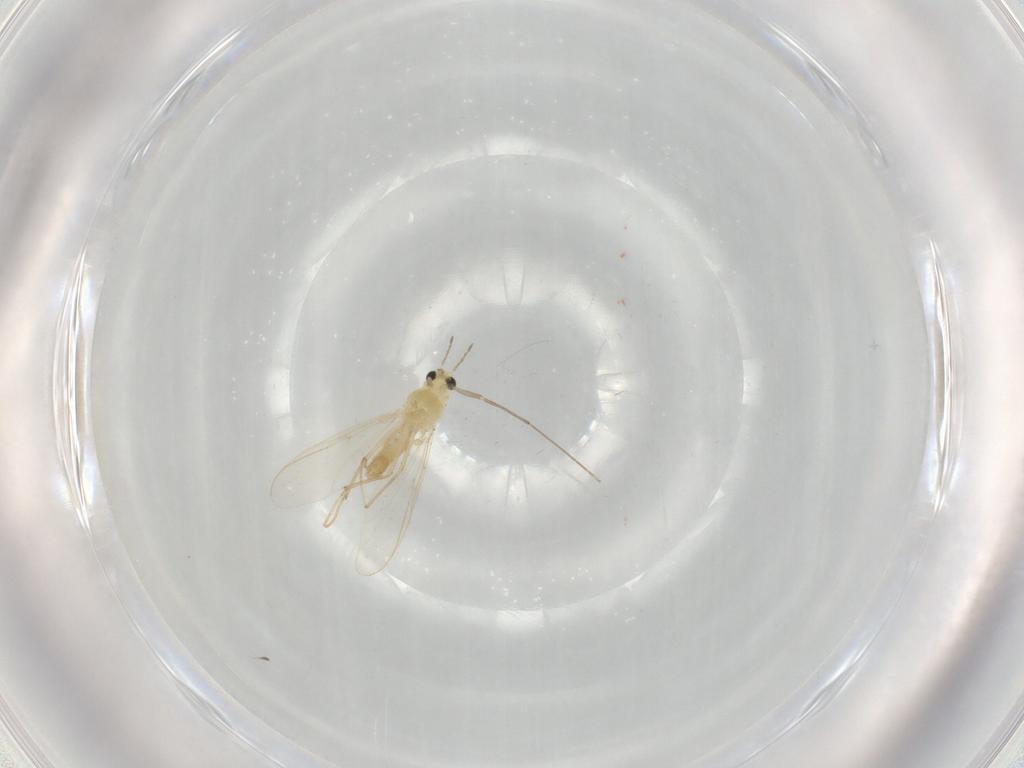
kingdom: Animalia
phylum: Arthropoda
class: Insecta
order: Diptera
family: Chironomidae
